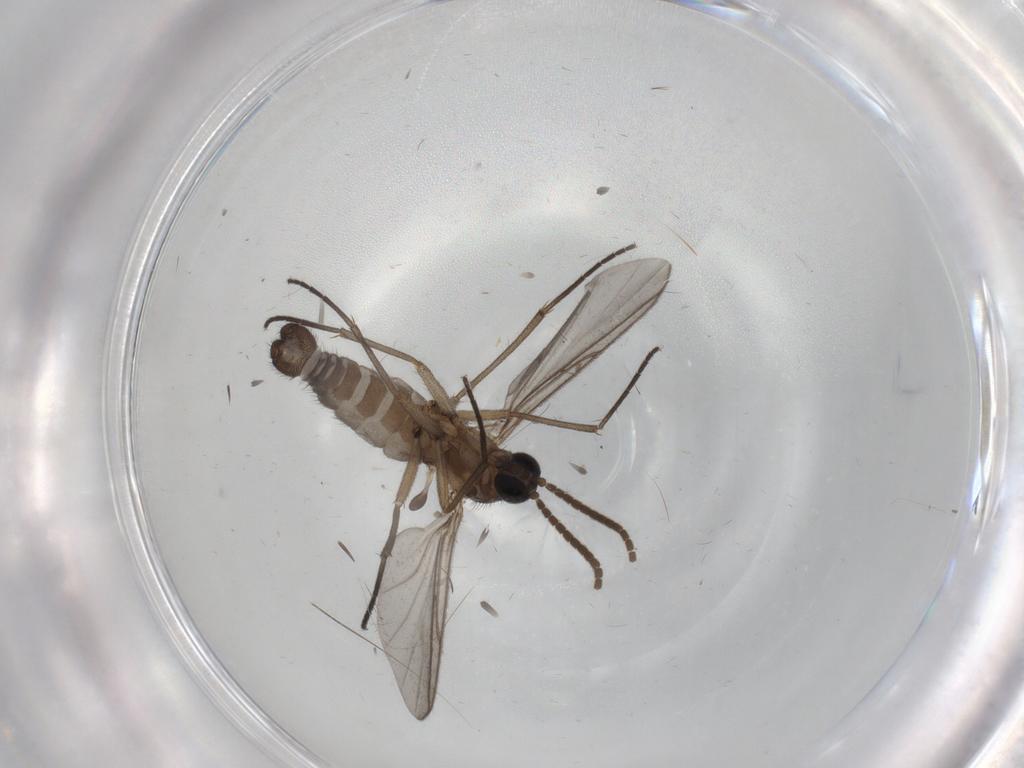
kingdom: Animalia
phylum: Arthropoda
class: Insecta
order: Diptera
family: Sciaridae
